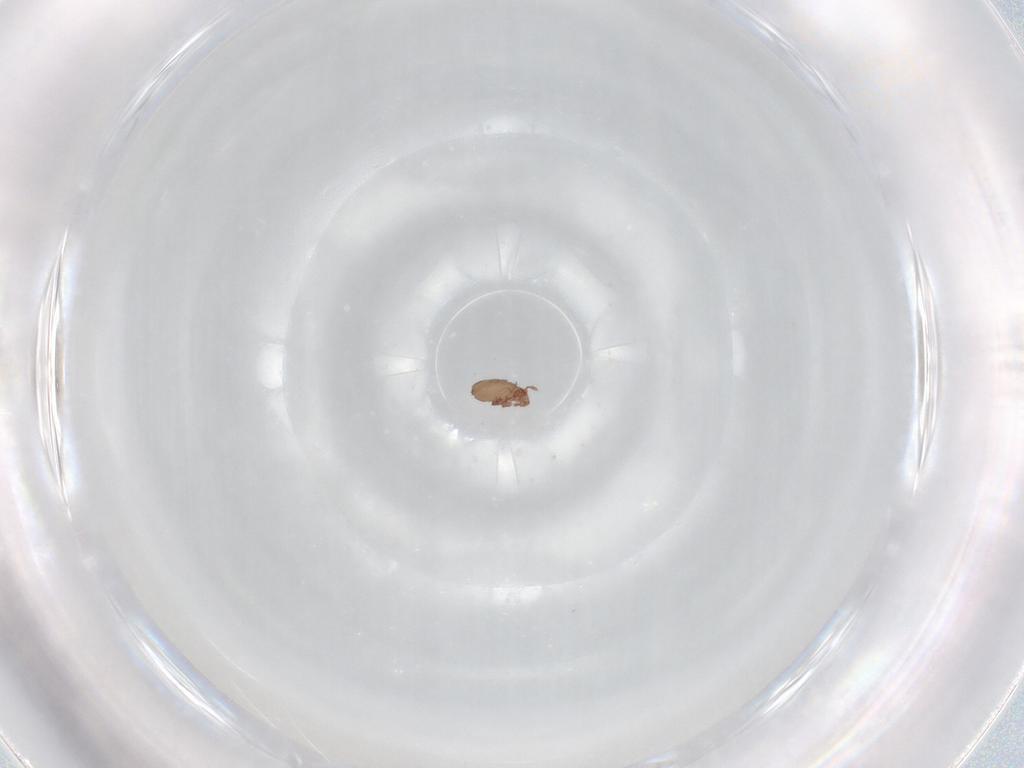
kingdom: Animalia
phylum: Arthropoda
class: Arachnida
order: Sarcoptiformes
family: Eremaeidae
